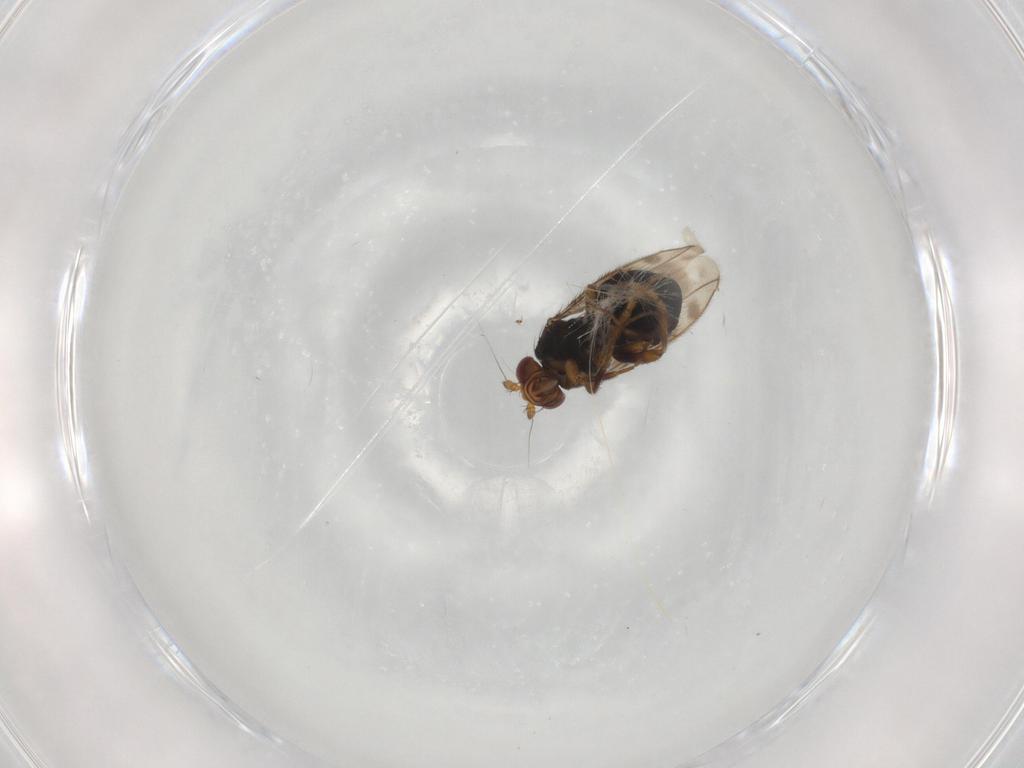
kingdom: Animalia
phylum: Arthropoda
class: Insecta
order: Diptera
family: Sphaeroceridae
